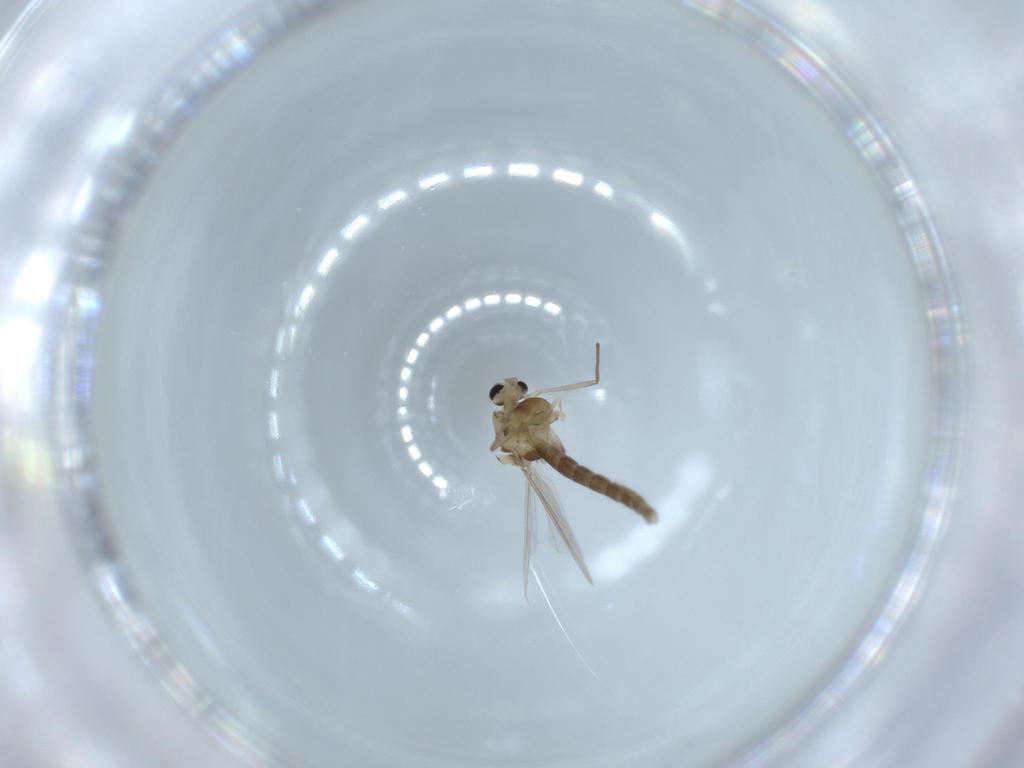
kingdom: Animalia
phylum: Arthropoda
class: Insecta
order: Diptera
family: Chironomidae
